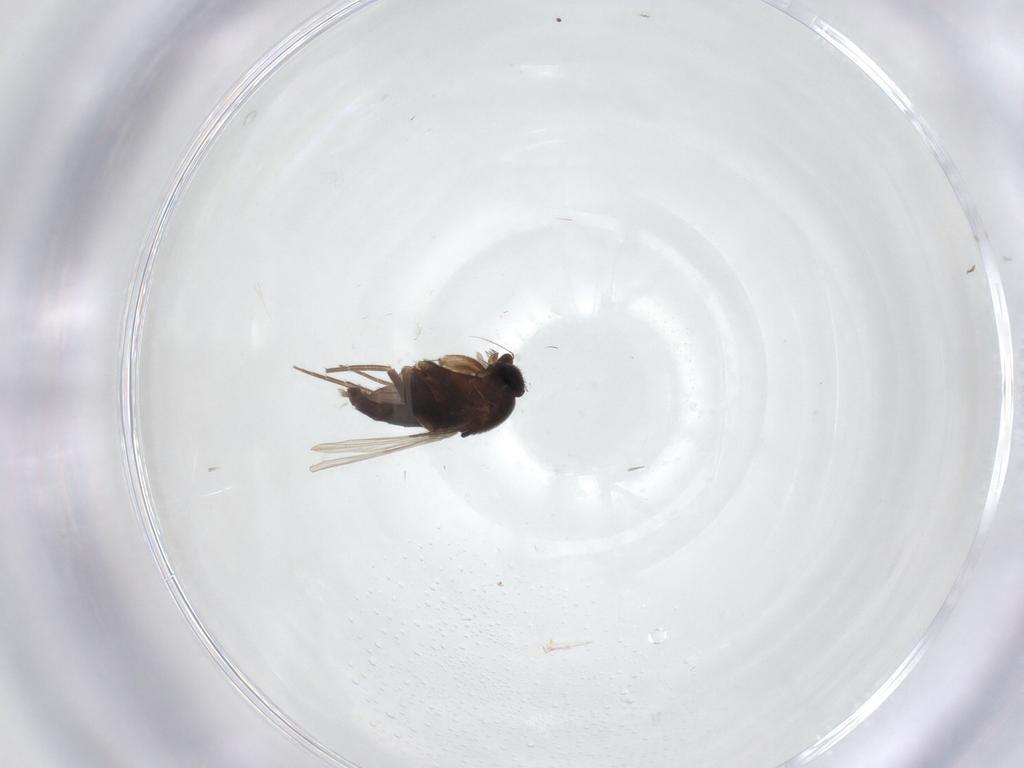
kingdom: Animalia
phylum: Arthropoda
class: Insecta
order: Diptera
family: Phoridae
